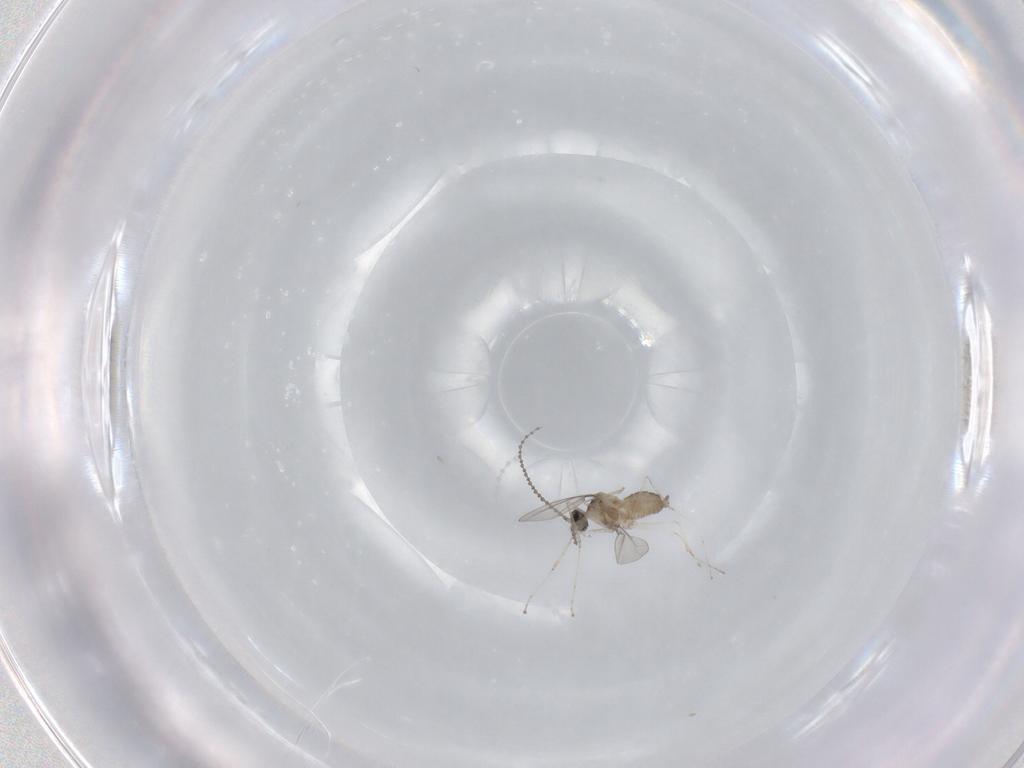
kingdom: Animalia
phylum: Arthropoda
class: Insecta
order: Diptera
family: Cecidomyiidae
